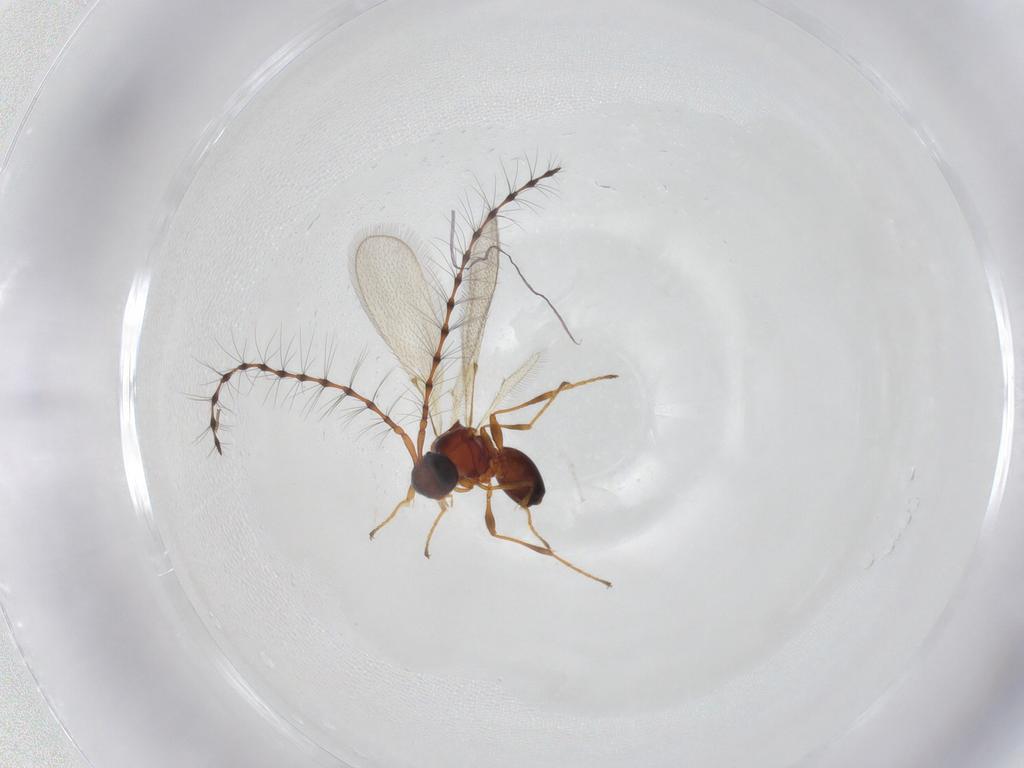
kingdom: Animalia
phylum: Arthropoda
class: Insecta
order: Hymenoptera
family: Diapriidae
